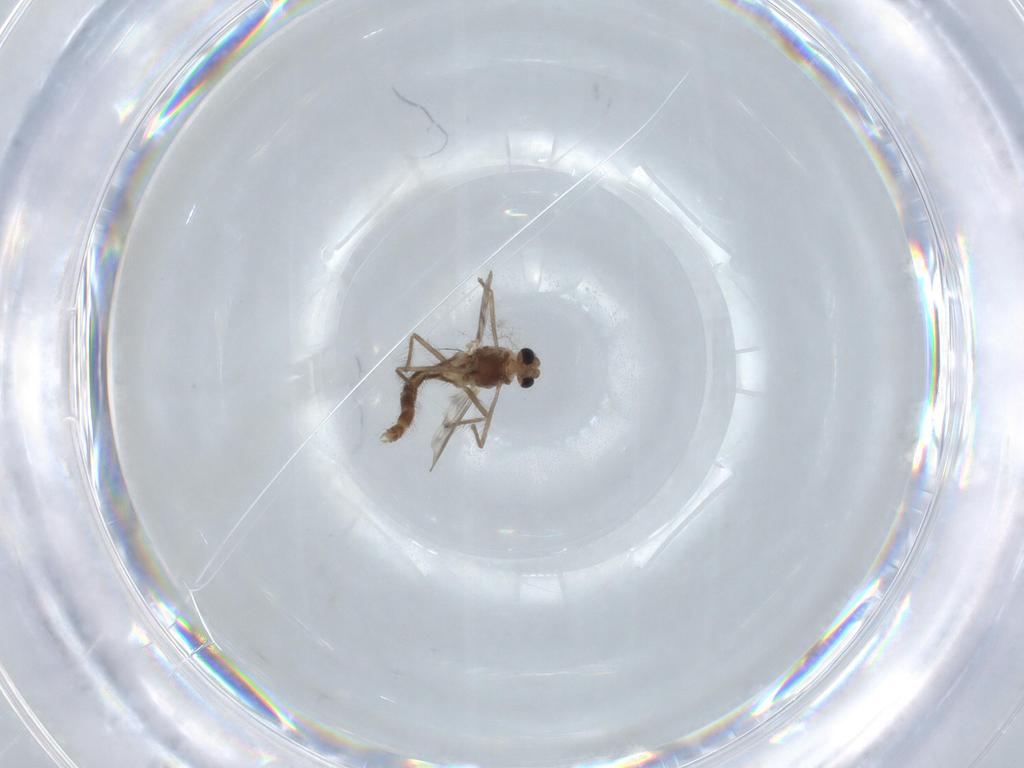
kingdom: Animalia
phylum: Arthropoda
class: Insecta
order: Diptera
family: Chironomidae
